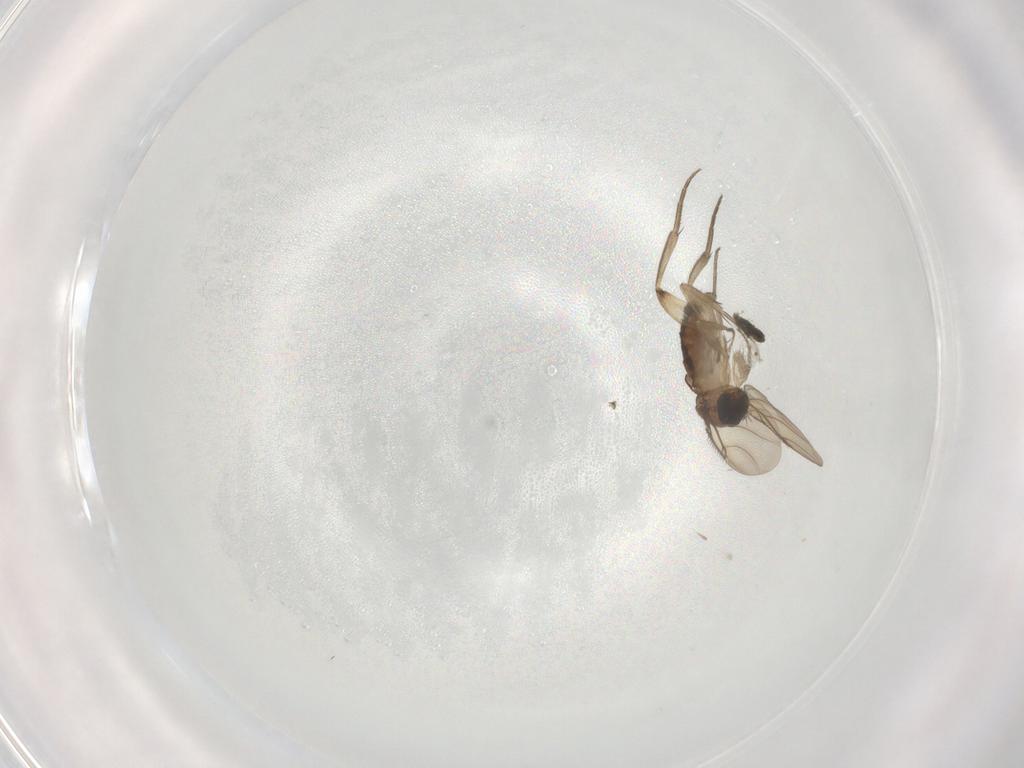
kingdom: Animalia
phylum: Arthropoda
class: Insecta
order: Diptera
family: Phoridae
